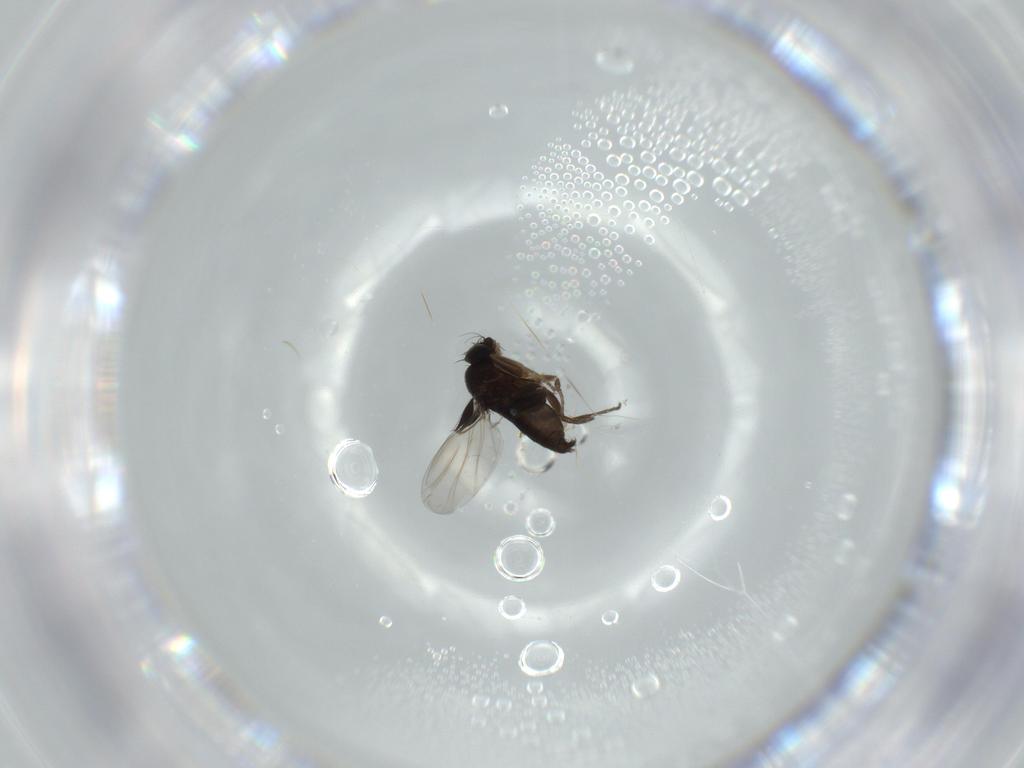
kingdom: Animalia
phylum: Arthropoda
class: Insecta
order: Diptera
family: Phoridae
